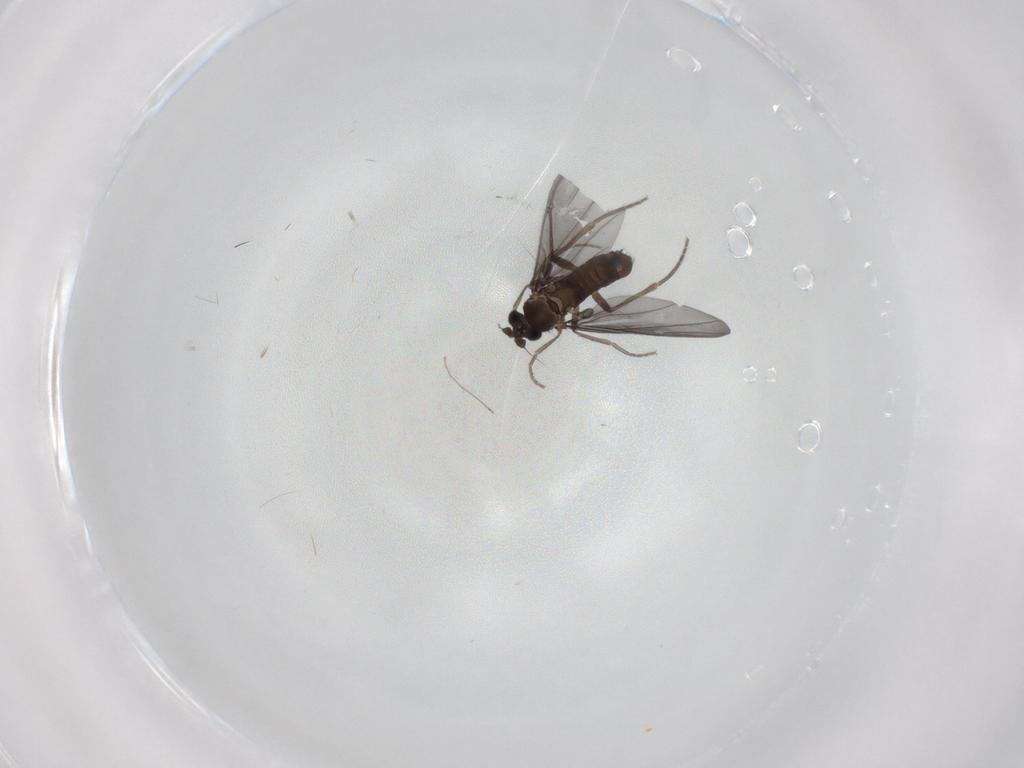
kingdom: Animalia
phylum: Arthropoda
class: Insecta
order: Diptera
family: Phoridae
